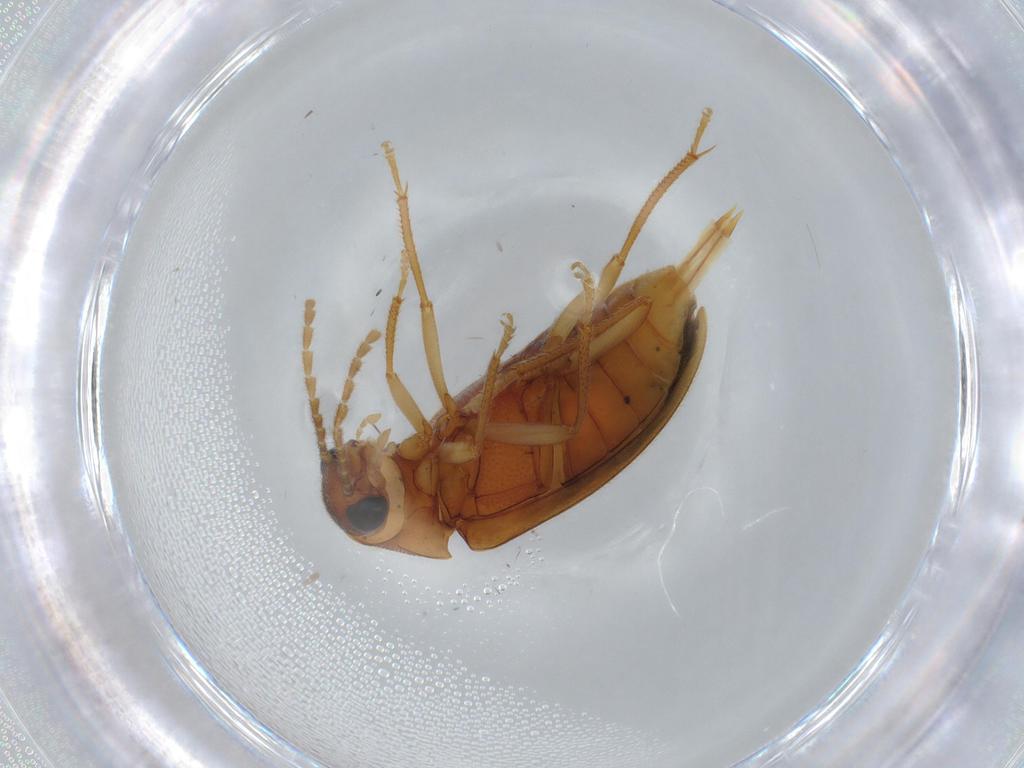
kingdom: Animalia
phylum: Arthropoda
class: Insecta
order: Coleoptera
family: Ptilodactylidae
